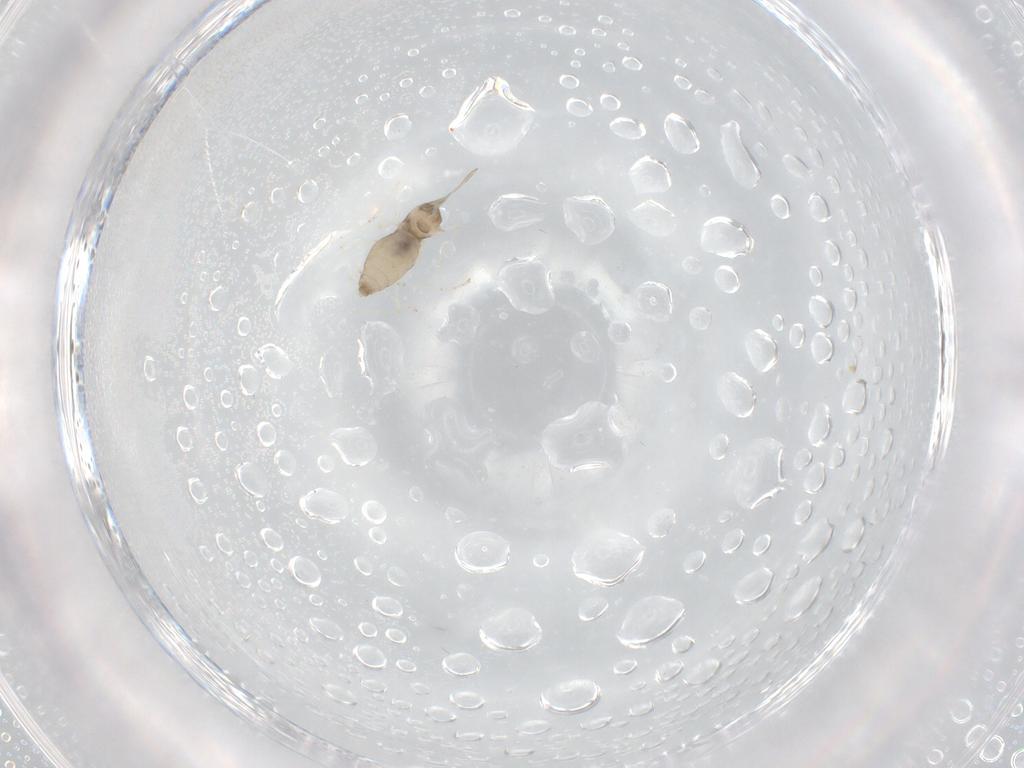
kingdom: Animalia
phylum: Arthropoda
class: Insecta
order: Diptera
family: Cecidomyiidae
